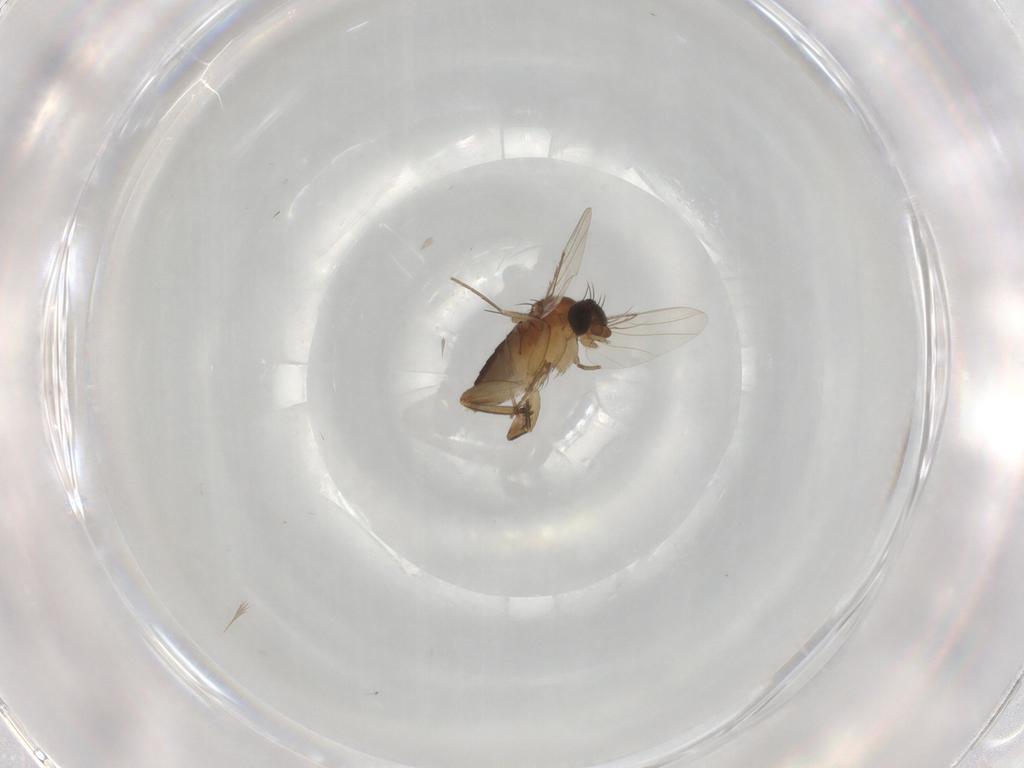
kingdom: Animalia
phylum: Arthropoda
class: Insecta
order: Diptera
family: Phoridae
